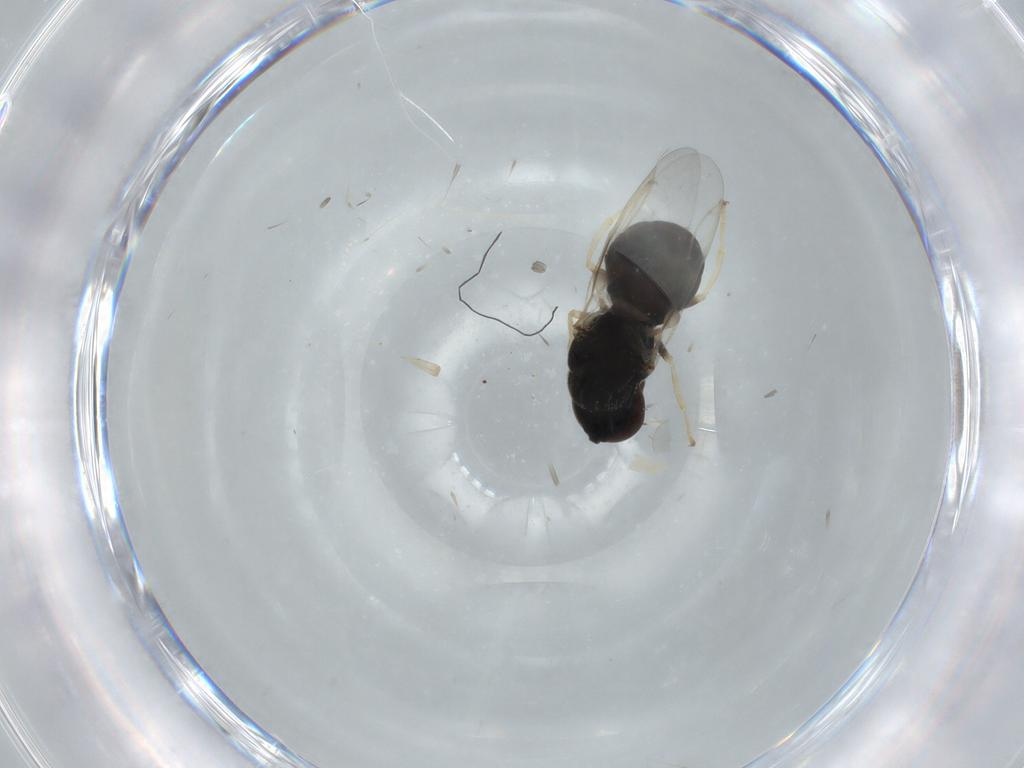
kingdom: Animalia
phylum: Arthropoda
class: Insecta
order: Diptera
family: Stratiomyidae
